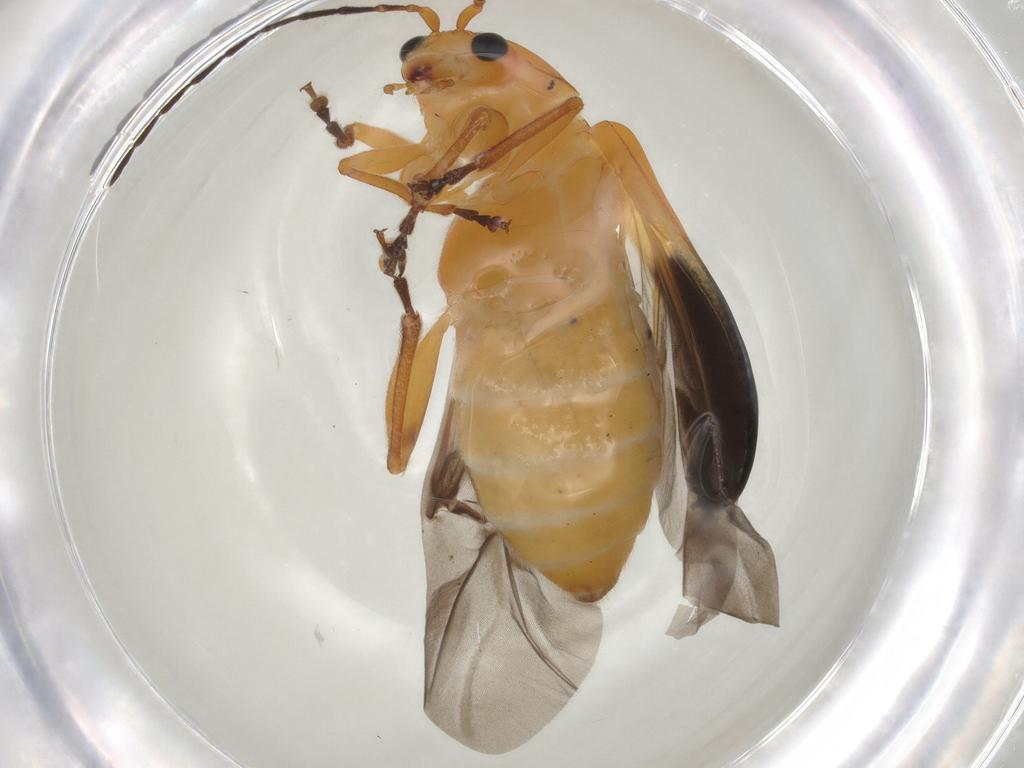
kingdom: Animalia
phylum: Arthropoda
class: Insecta
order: Coleoptera
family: Chrysomelidae
